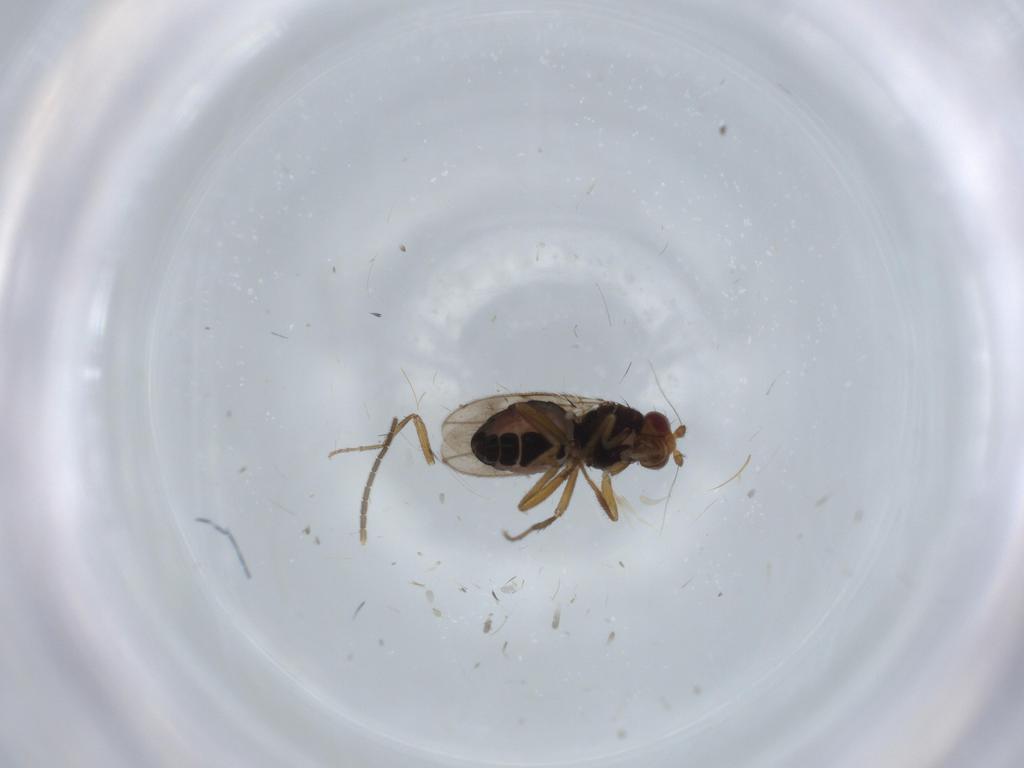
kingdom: Animalia
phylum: Arthropoda
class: Insecta
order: Diptera
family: Sphaeroceridae
